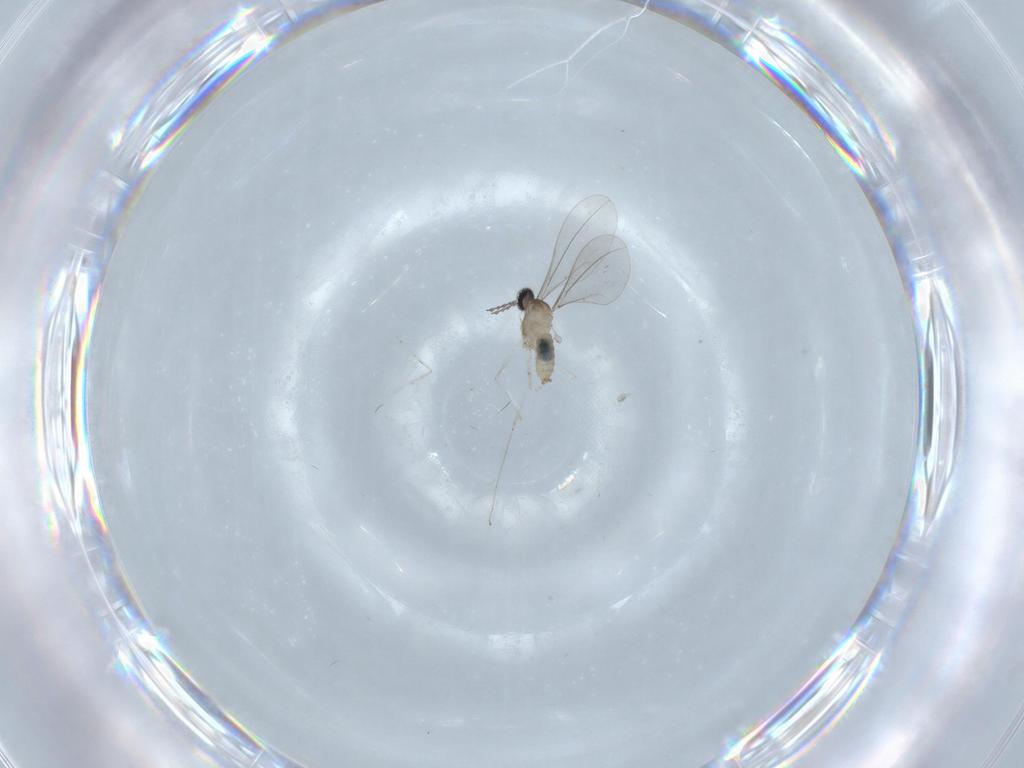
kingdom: Animalia
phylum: Arthropoda
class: Insecta
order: Diptera
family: Cecidomyiidae
